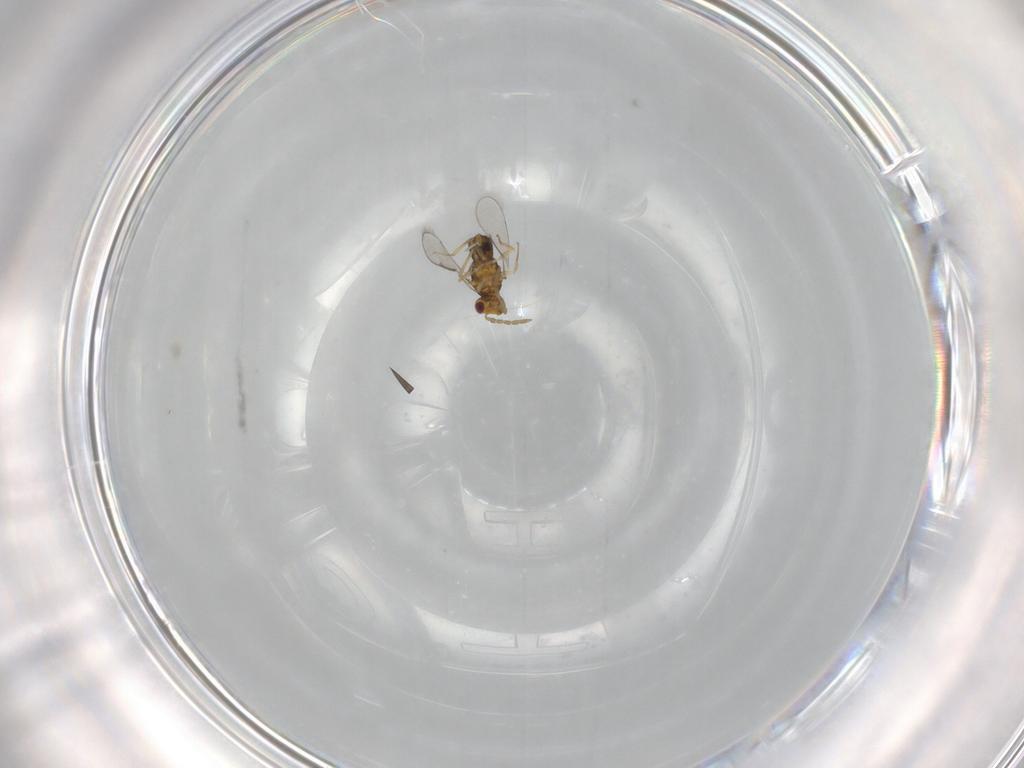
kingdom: Animalia
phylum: Arthropoda
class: Insecta
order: Hymenoptera
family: Aphelinidae
